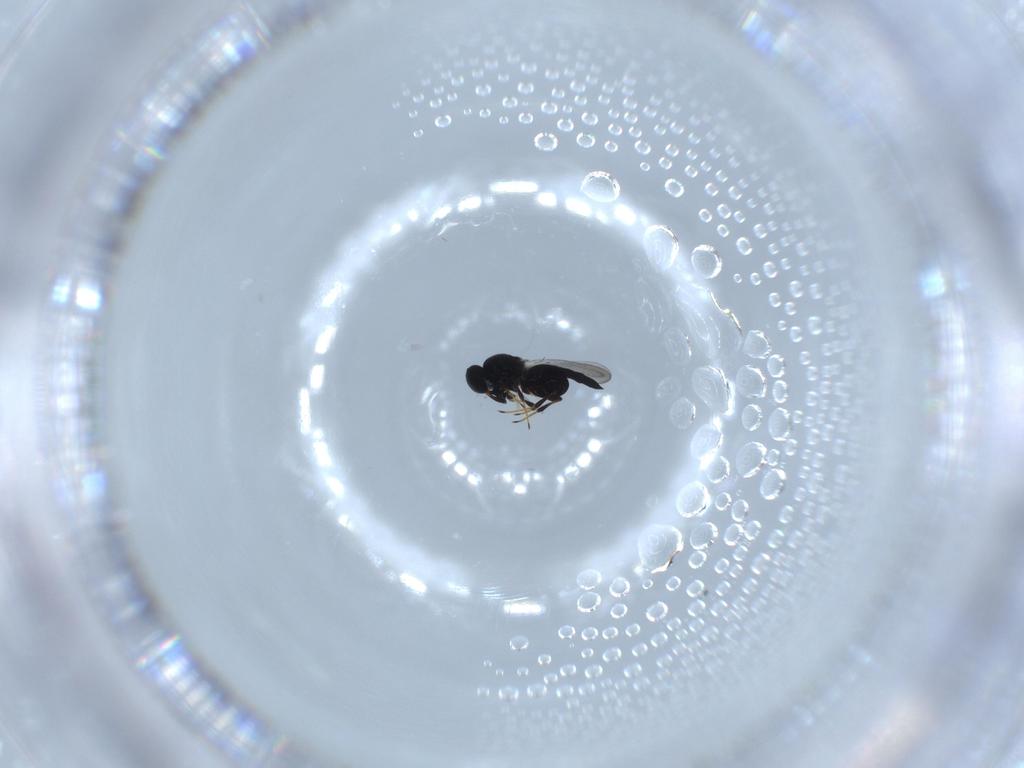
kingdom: Animalia
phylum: Arthropoda
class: Insecta
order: Hymenoptera
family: Platygastridae
